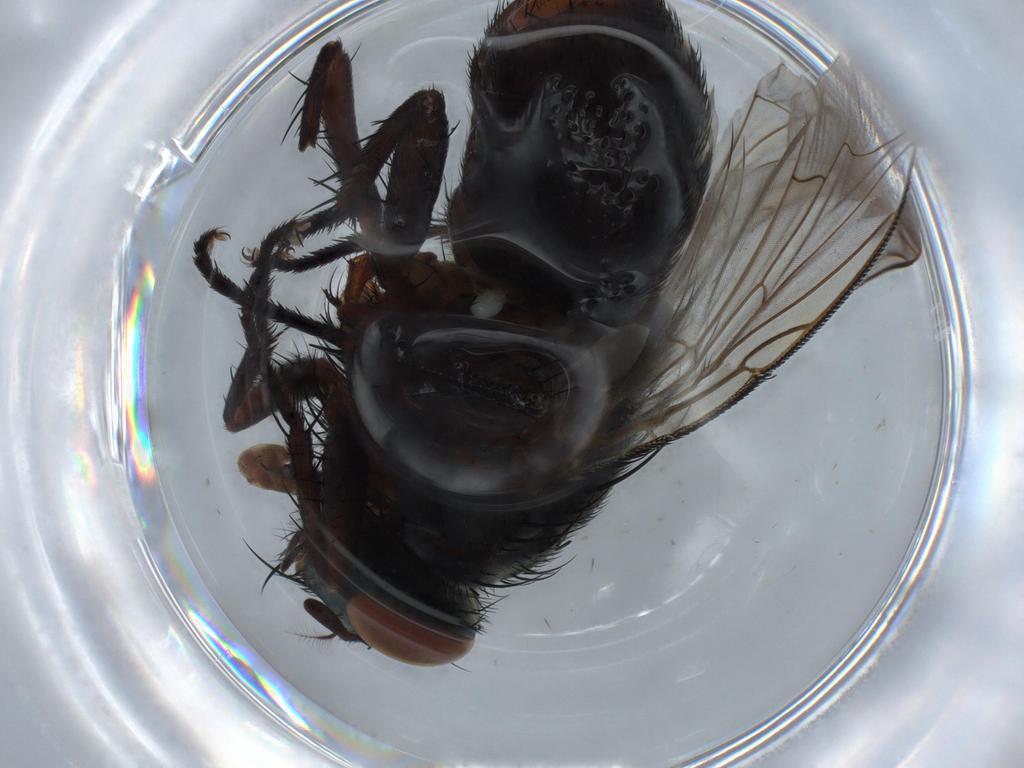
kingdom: Animalia
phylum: Arthropoda
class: Insecta
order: Diptera
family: Sarcophagidae
